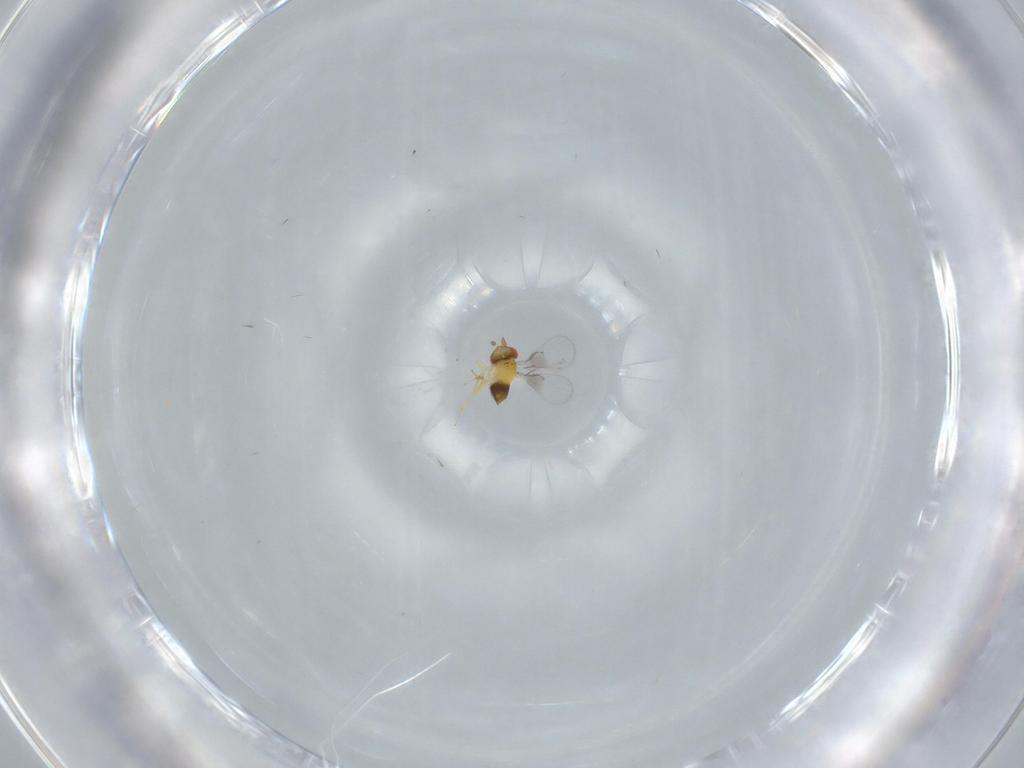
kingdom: Animalia
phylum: Arthropoda
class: Insecta
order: Hymenoptera
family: Trichogrammatidae
